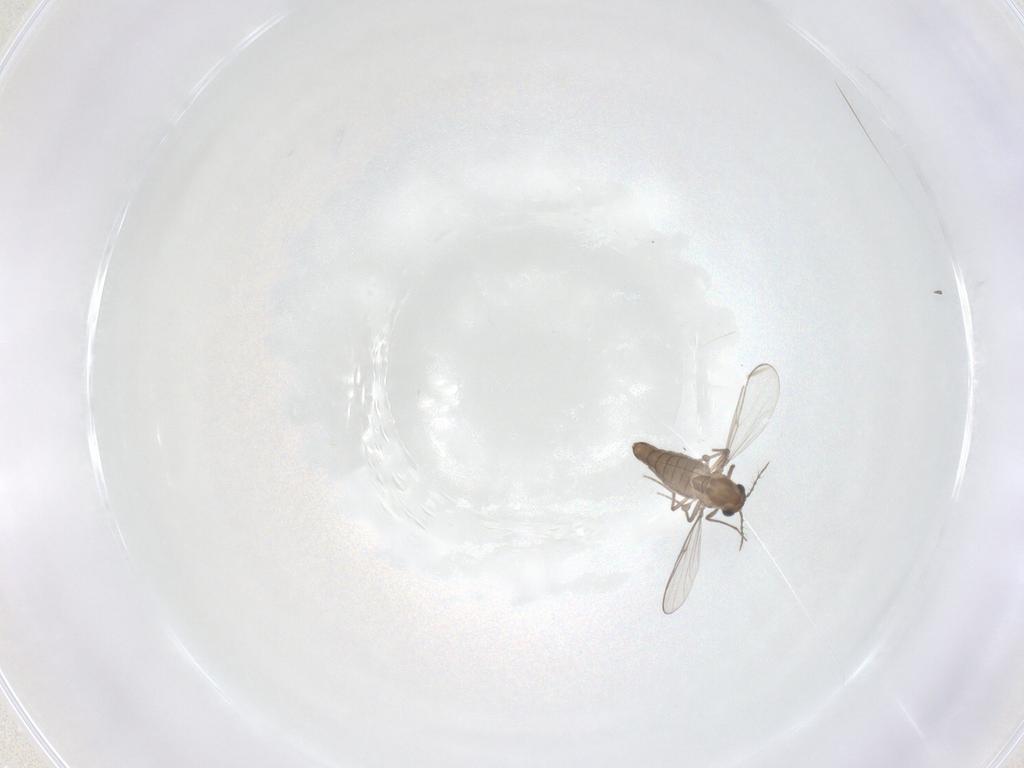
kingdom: Animalia
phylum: Arthropoda
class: Insecta
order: Diptera
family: Chironomidae
